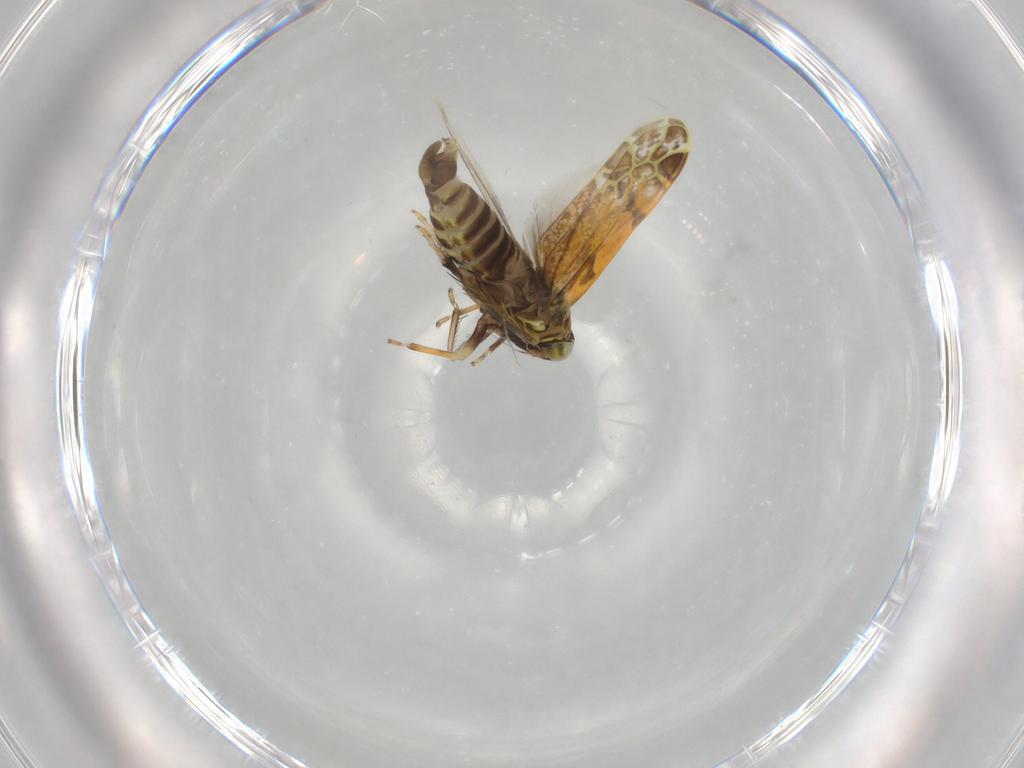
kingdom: Animalia
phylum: Arthropoda
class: Insecta
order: Hemiptera
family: Cicadellidae
